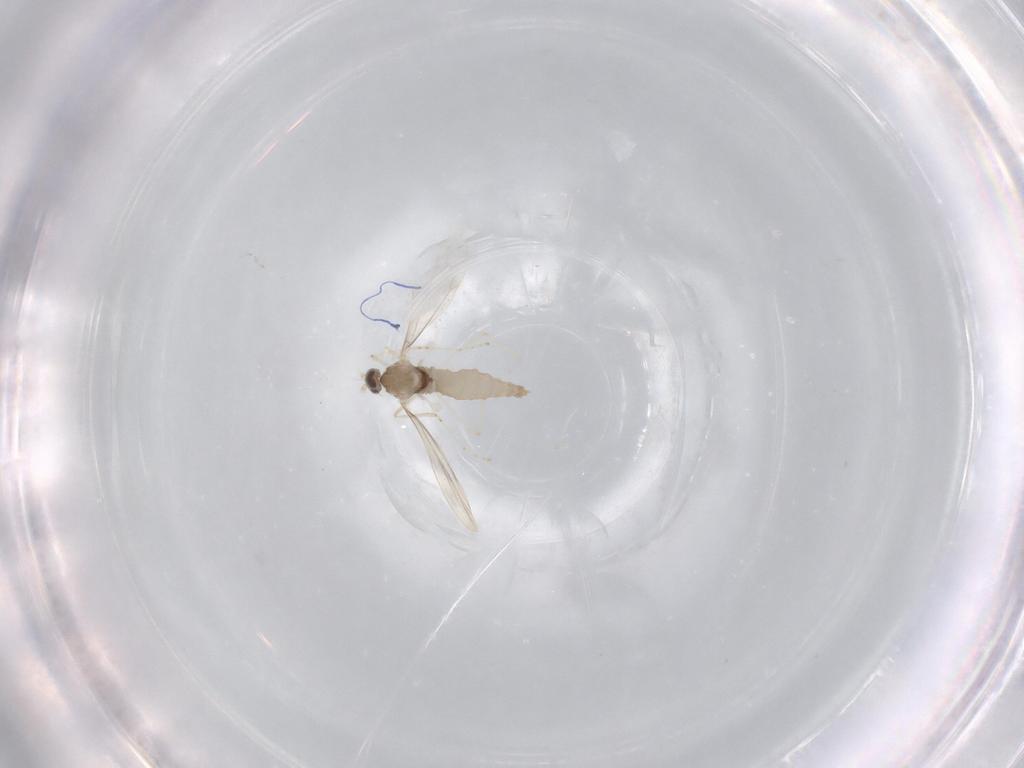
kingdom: Animalia
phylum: Arthropoda
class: Insecta
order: Diptera
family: Cecidomyiidae
